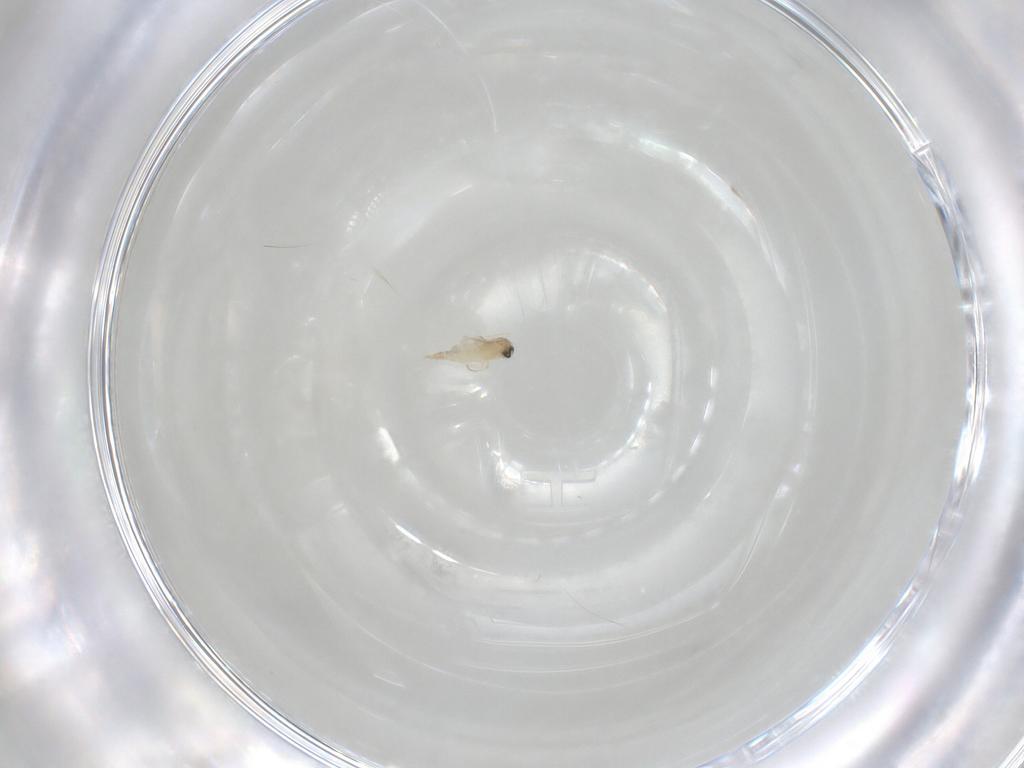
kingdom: Animalia
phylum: Arthropoda
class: Insecta
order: Diptera
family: Cecidomyiidae
